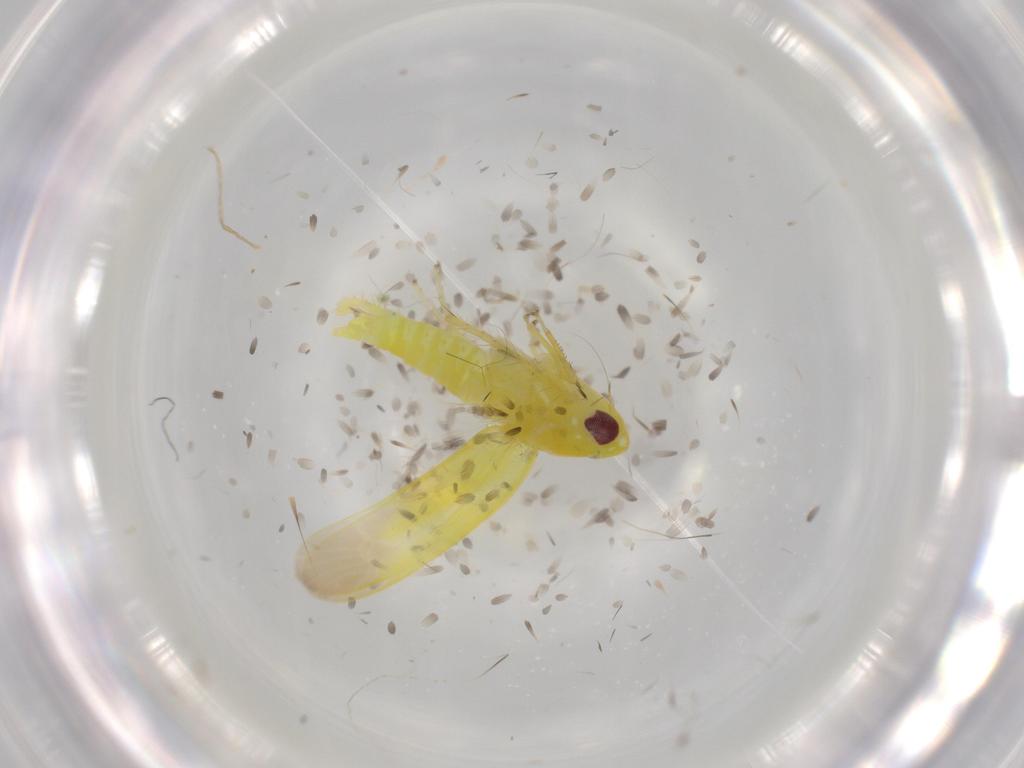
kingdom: Animalia
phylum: Arthropoda
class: Insecta
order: Hemiptera
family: Cicadellidae
